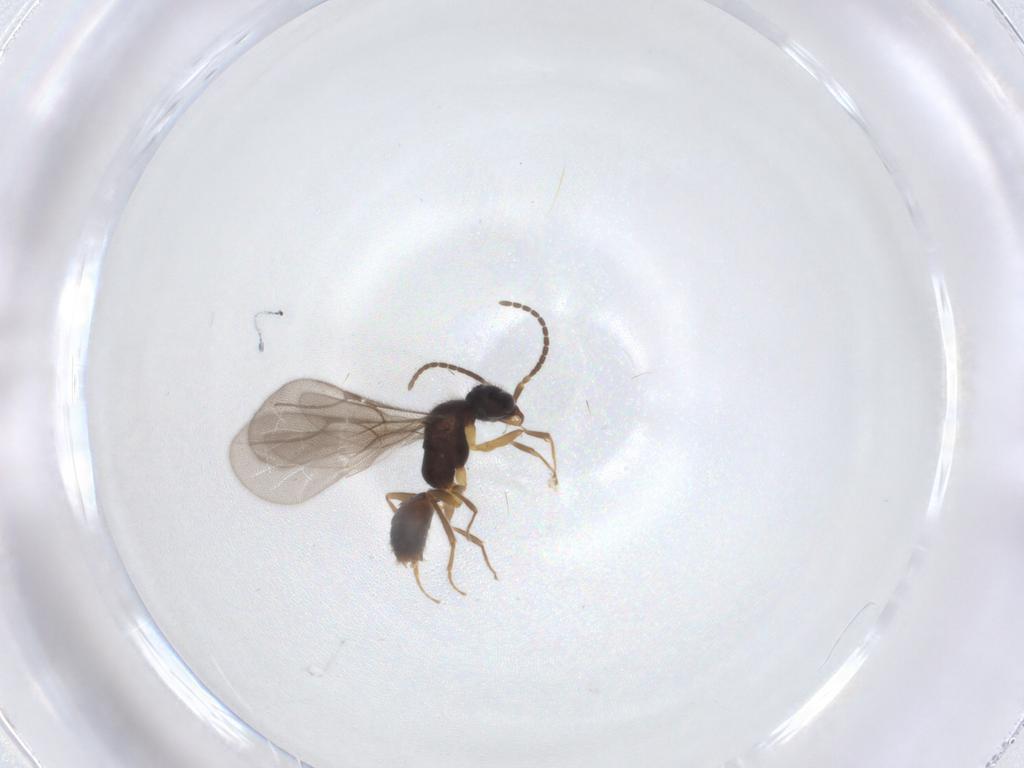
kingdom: Animalia
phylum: Arthropoda
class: Insecta
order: Hymenoptera
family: Bethylidae
